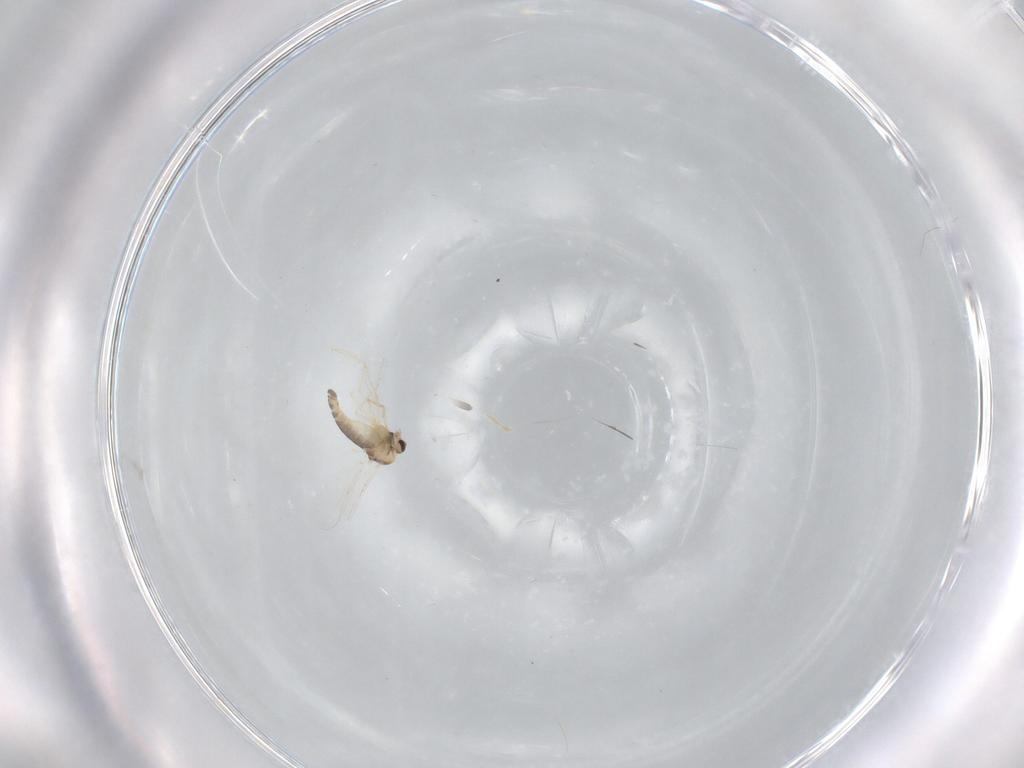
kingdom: Animalia
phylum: Arthropoda
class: Insecta
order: Diptera
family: Chironomidae
